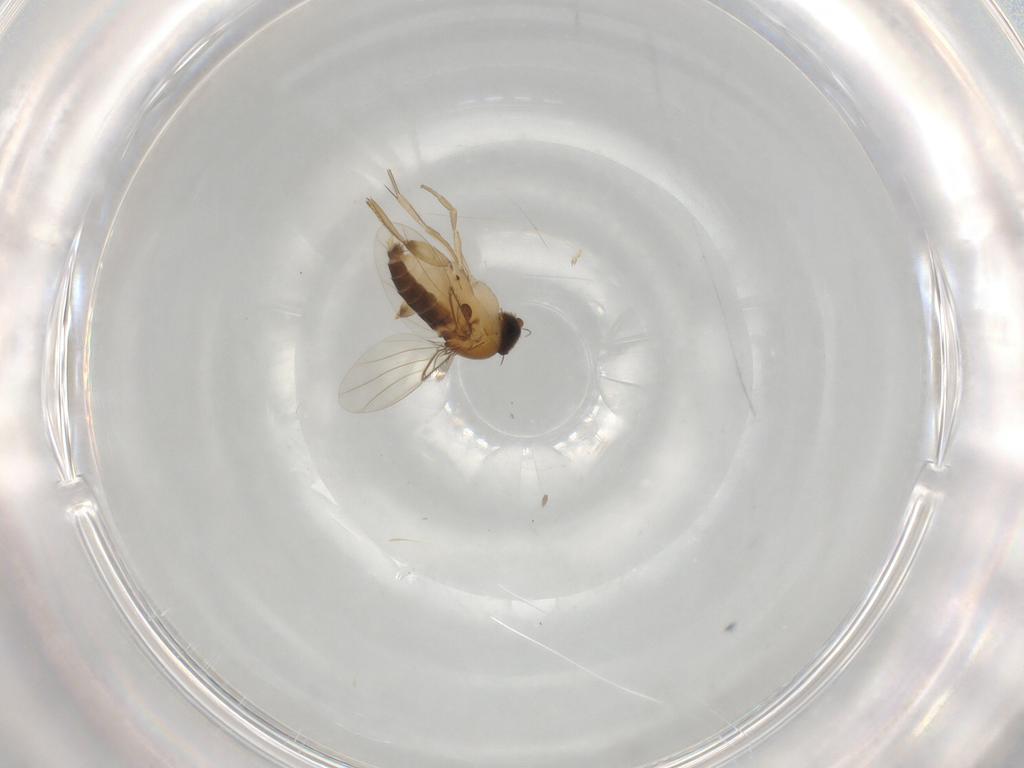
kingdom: Animalia
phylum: Arthropoda
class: Insecta
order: Diptera
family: Phoridae
